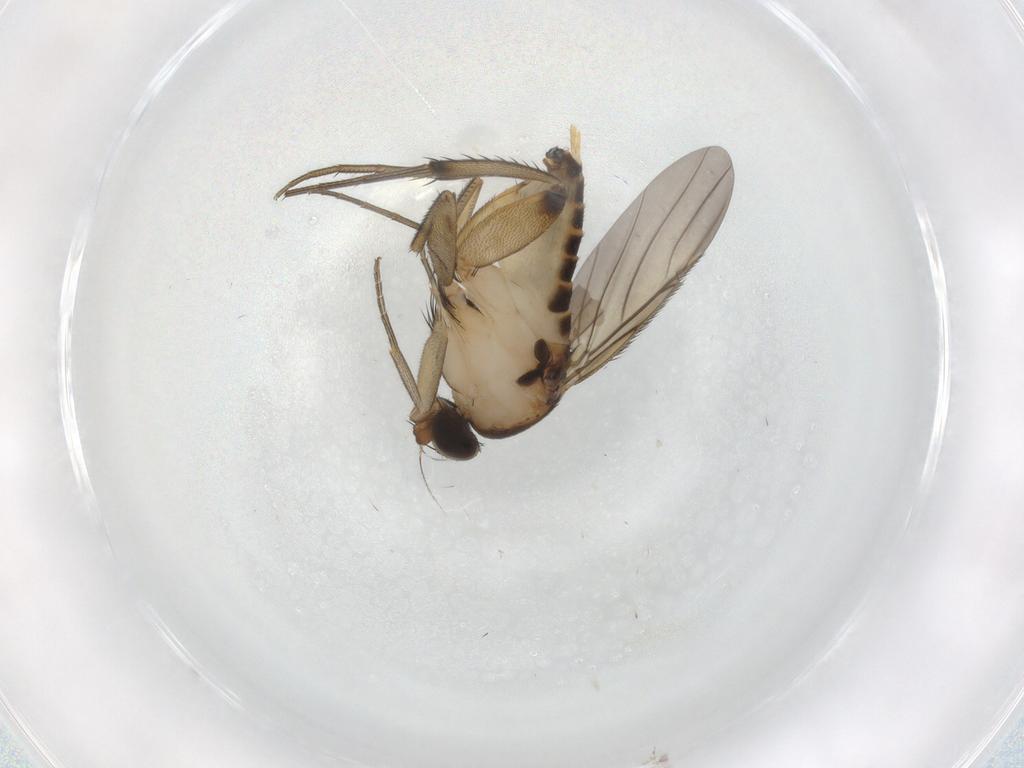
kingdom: Animalia
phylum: Arthropoda
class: Insecta
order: Diptera
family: Phoridae
